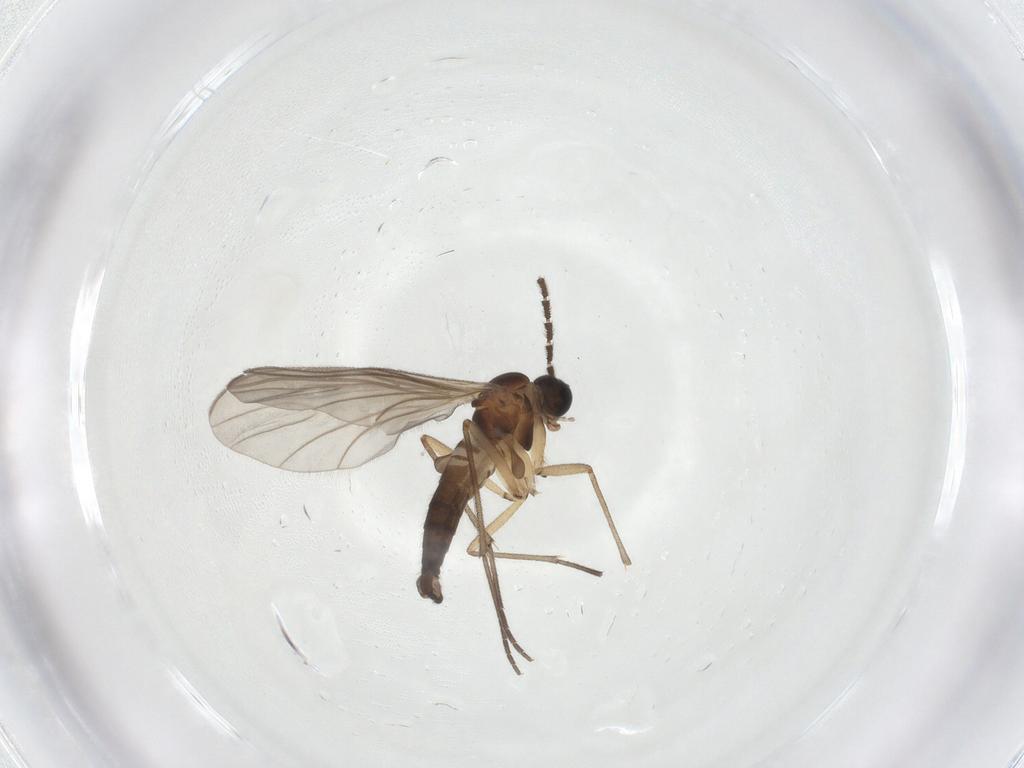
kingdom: Animalia
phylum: Arthropoda
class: Insecta
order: Diptera
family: Sciaridae
